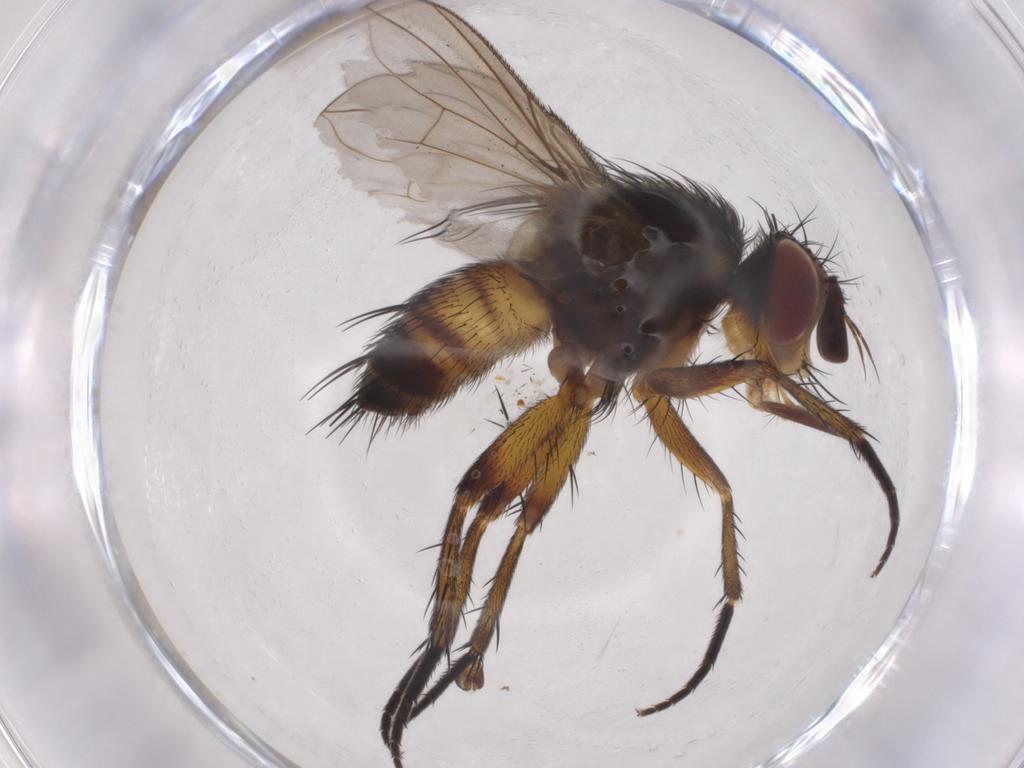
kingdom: Animalia
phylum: Arthropoda
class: Insecta
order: Diptera
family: Tachinidae
